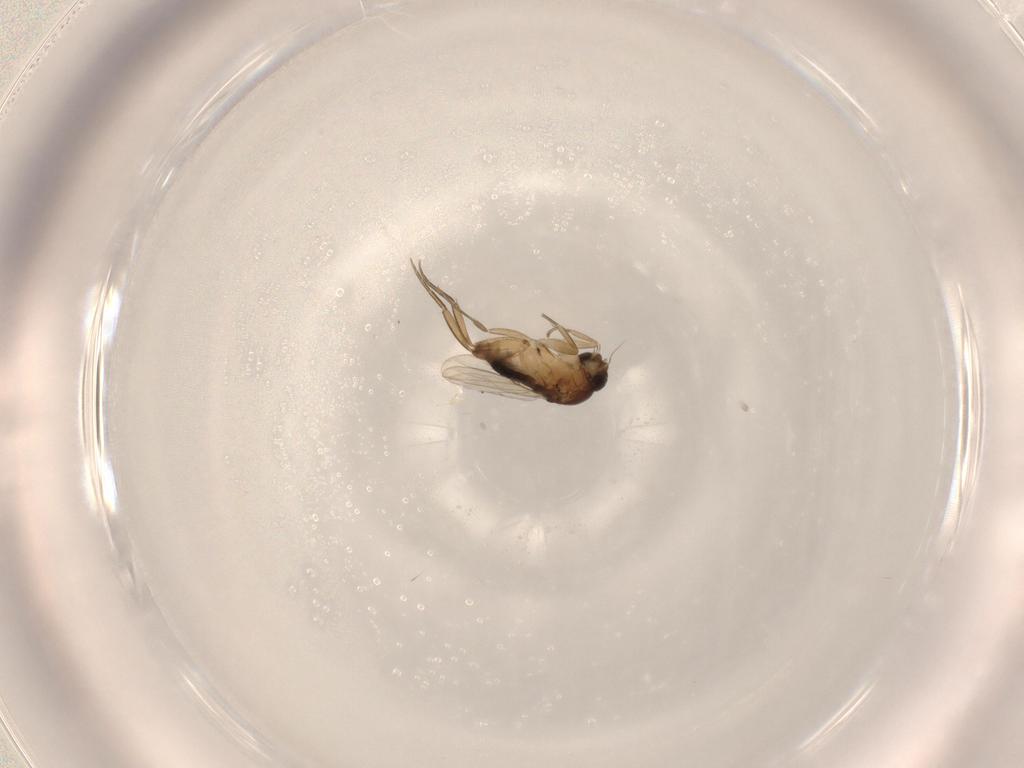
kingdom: Animalia
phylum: Arthropoda
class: Insecta
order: Diptera
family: Phoridae
